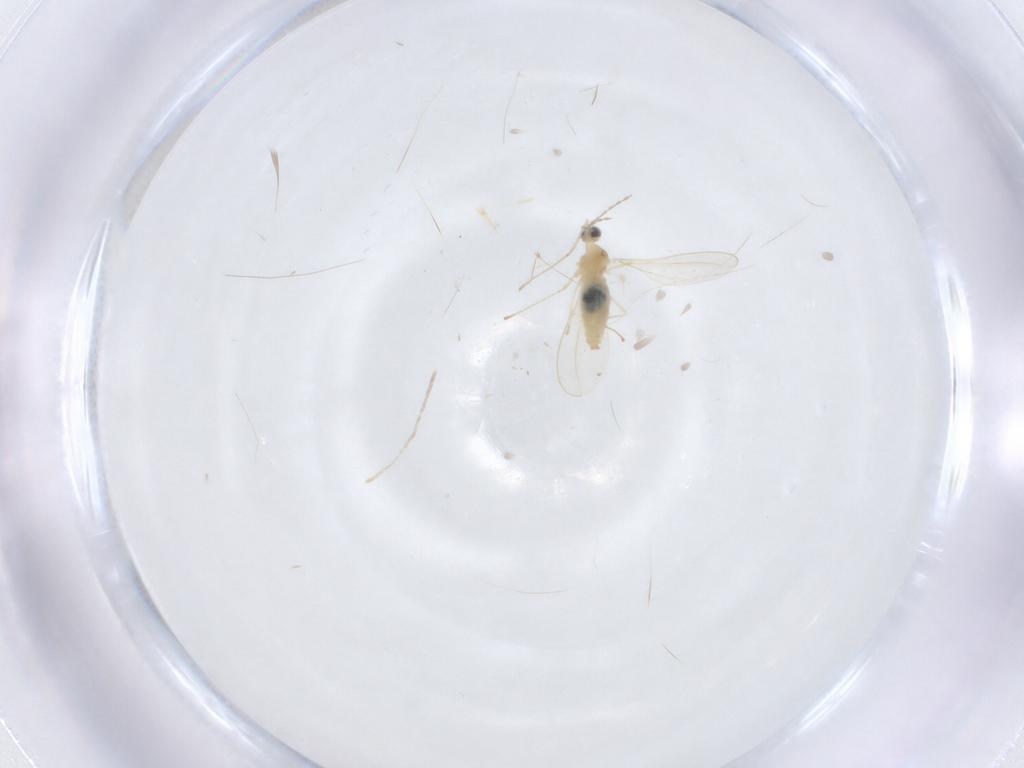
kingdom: Animalia
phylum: Arthropoda
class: Insecta
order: Diptera
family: Cecidomyiidae
